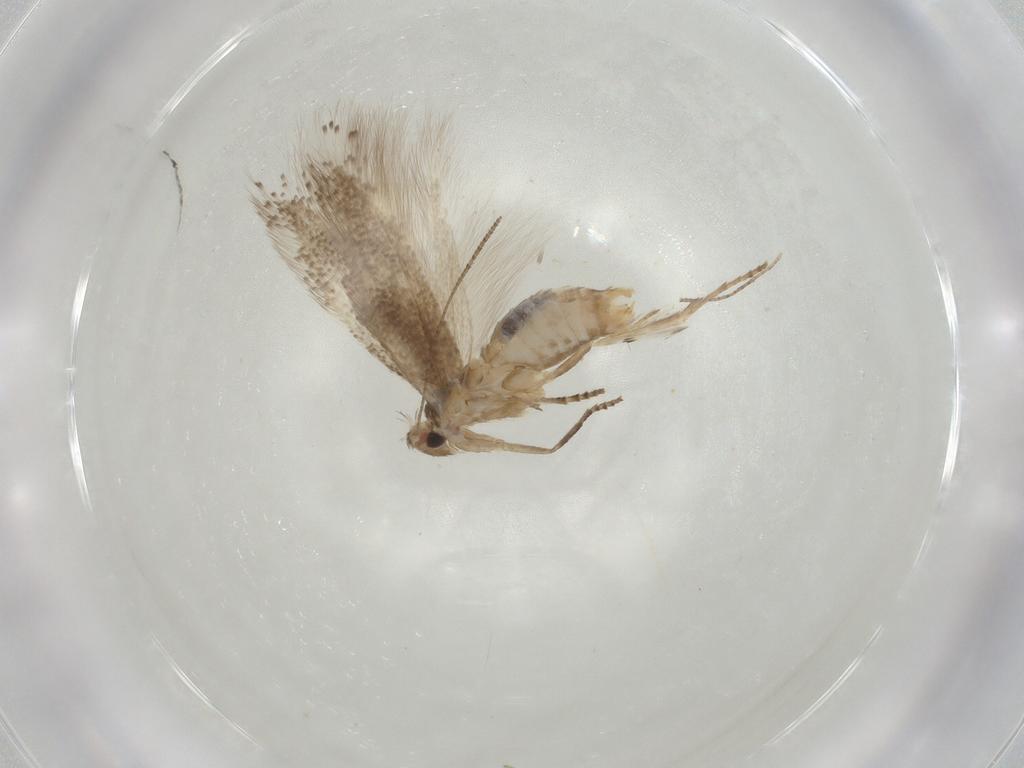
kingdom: Animalia
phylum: Arthropoda
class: Insecta
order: Lepidoptera
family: Bucculatricidae
